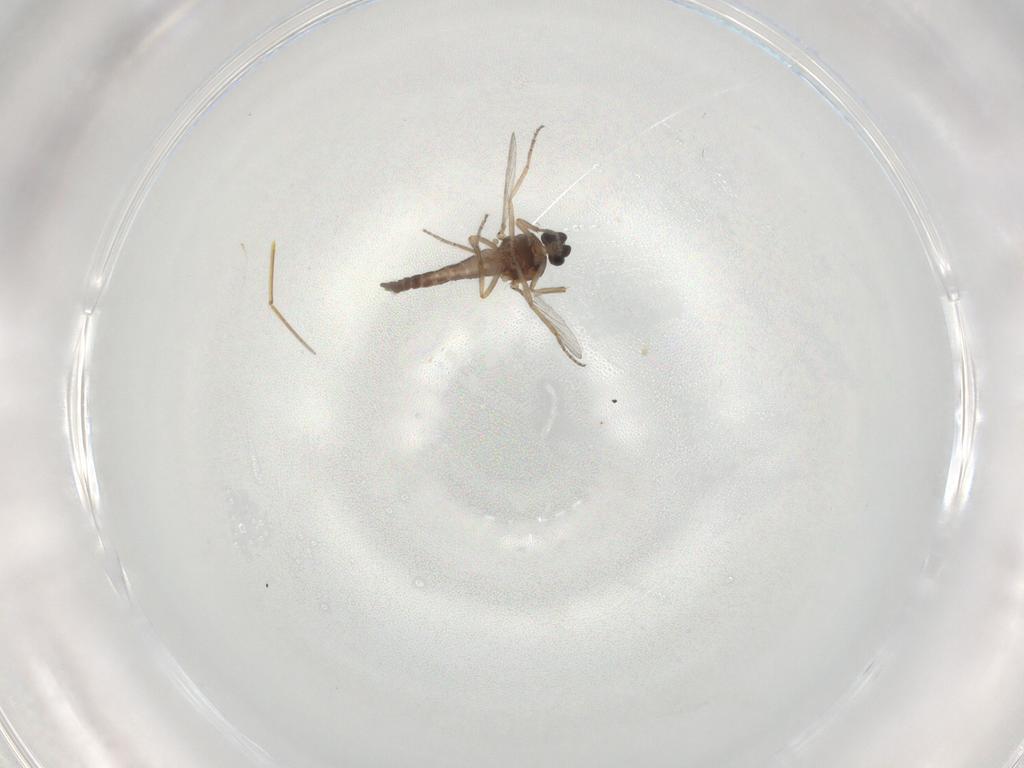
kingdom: Animalia
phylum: Arthropoda
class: Insecta
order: Diptera
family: Cecidomyiidae
